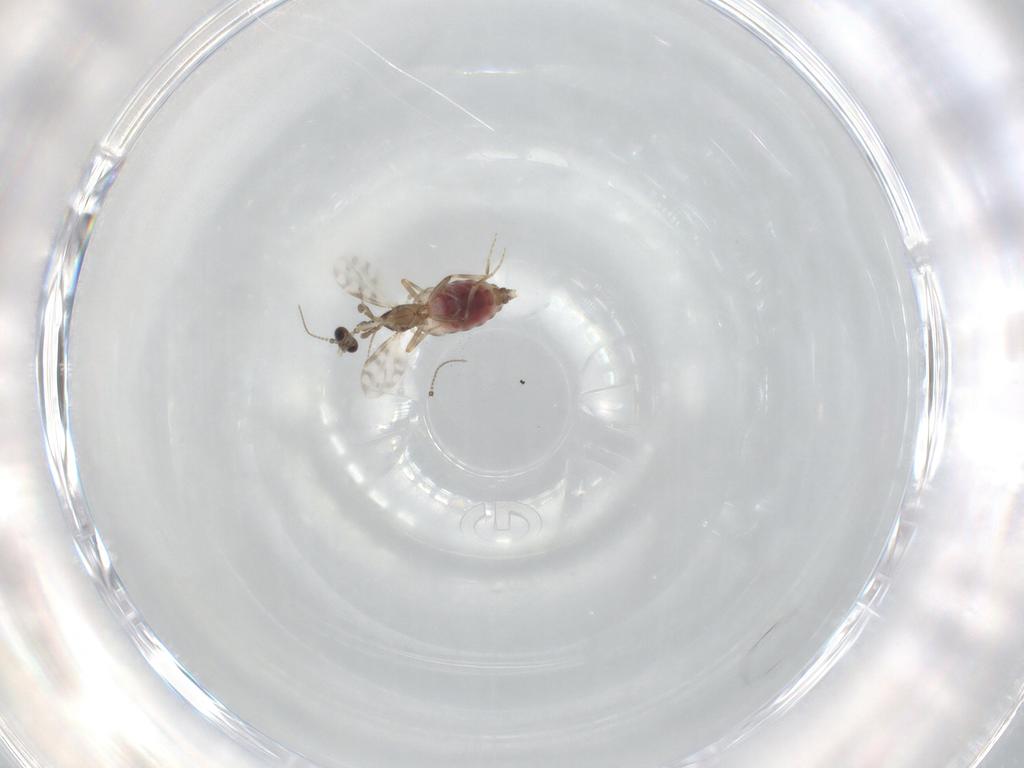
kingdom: Animalia
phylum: Arthropoda
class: Insecta
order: Diptera
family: Ceratopogonidae
